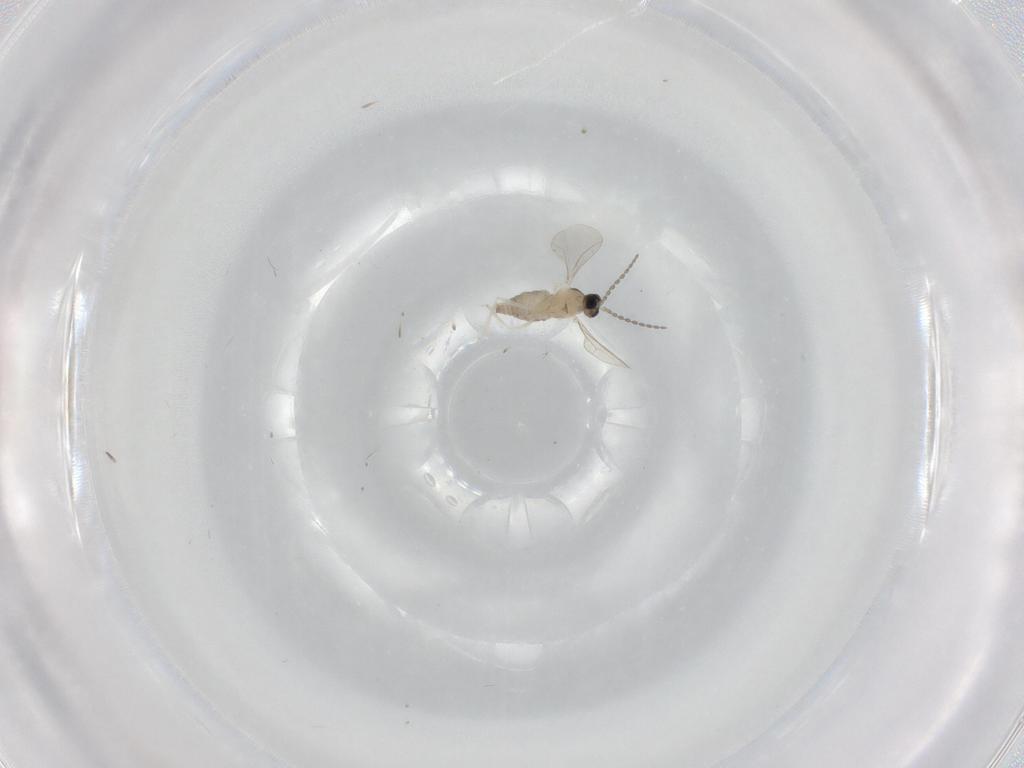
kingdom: Animalia
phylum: Arthropoda
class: Insecta
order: Diptera
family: Cecidomyiidae
